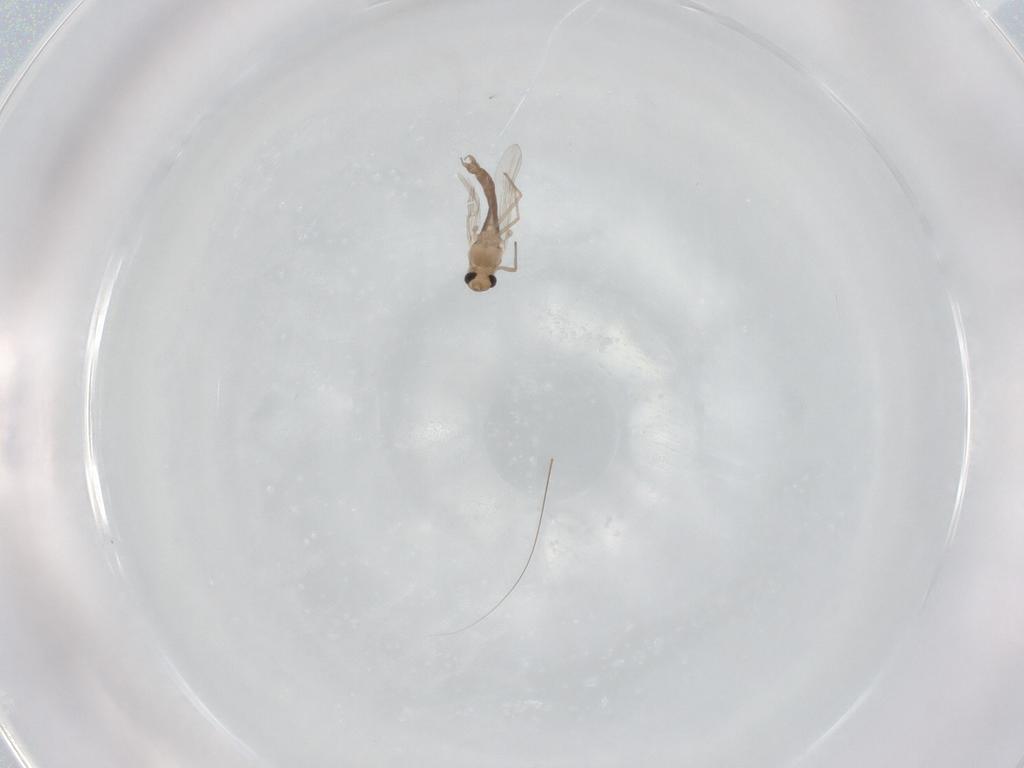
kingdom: Animalia
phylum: Arthropoda
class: Insecta
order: Diptera
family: Chironomidae
